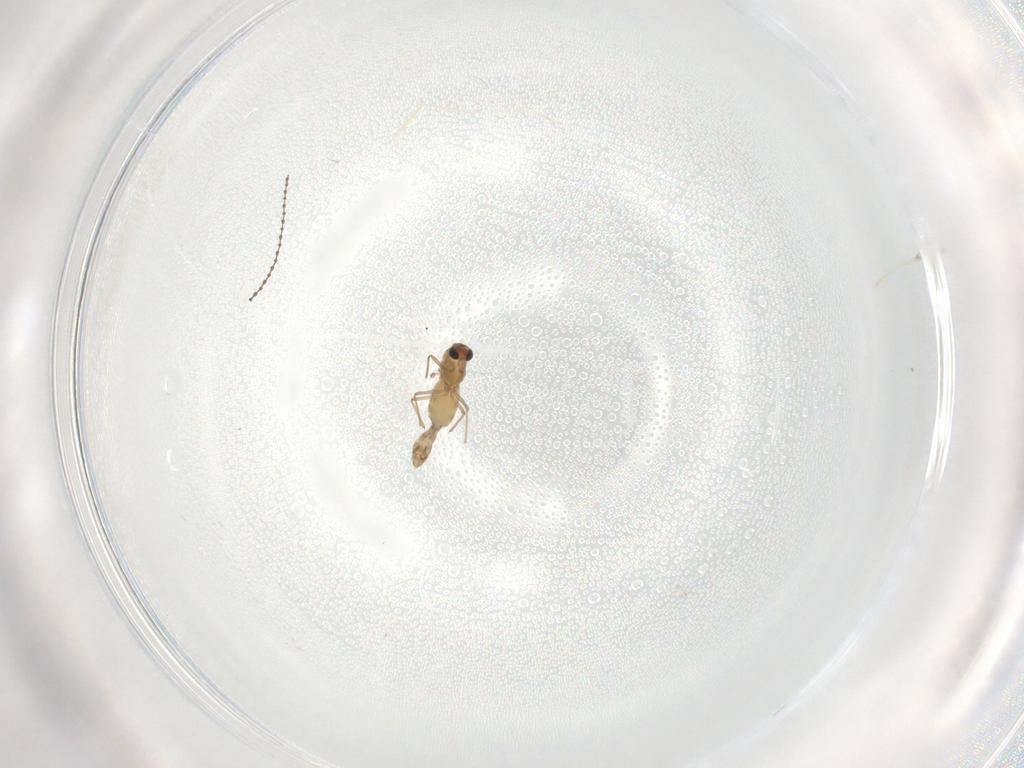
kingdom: Animalia
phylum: Arthropoda
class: Insecta
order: Diptera
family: Chironomidae
